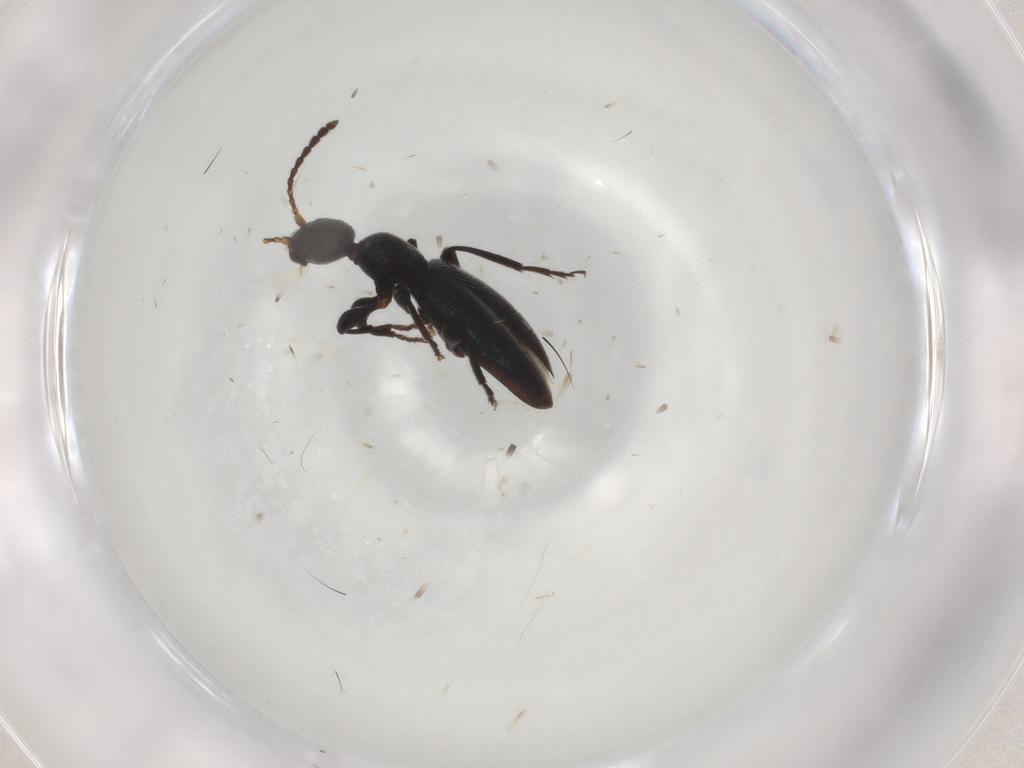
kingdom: Animalia
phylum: Arthropoda
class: Insecta
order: Coleoptera
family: Anthicidae
